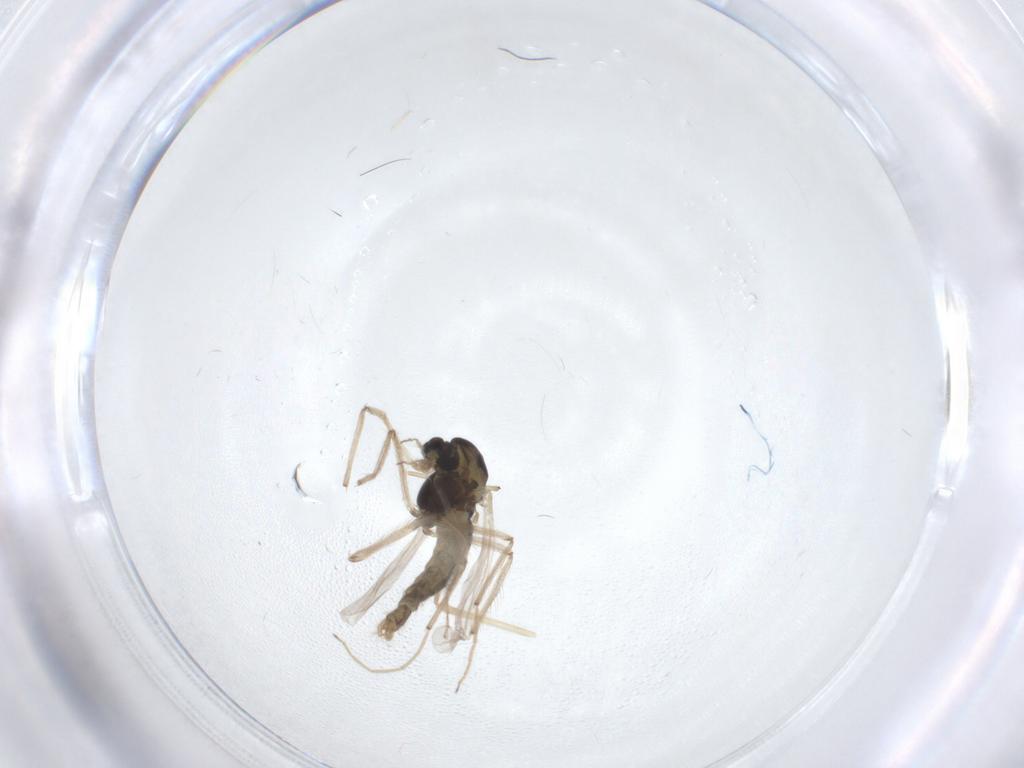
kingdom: Animalia
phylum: Arthropoda
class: Insecta
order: Diptera
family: Chironomidae
